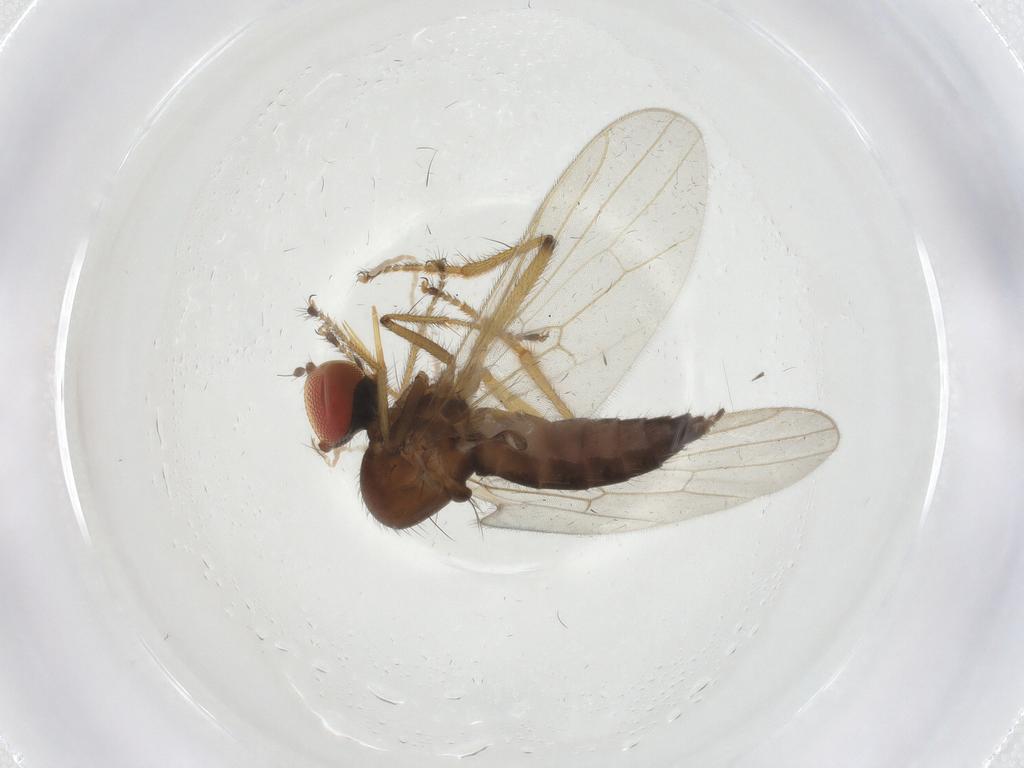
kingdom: Animalia
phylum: Arthropoda
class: Insecta
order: Diptera
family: Hybotidae
